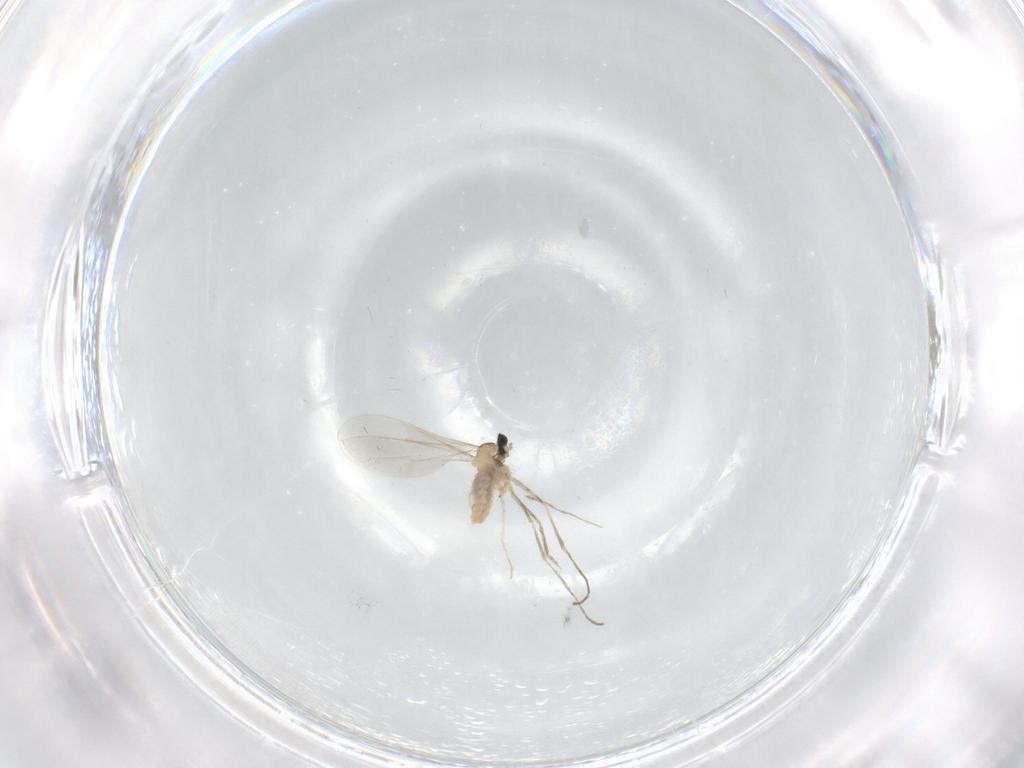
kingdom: Animalia
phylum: Arthropoda
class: Insecta
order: Diptera
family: Cecidomyiidae
